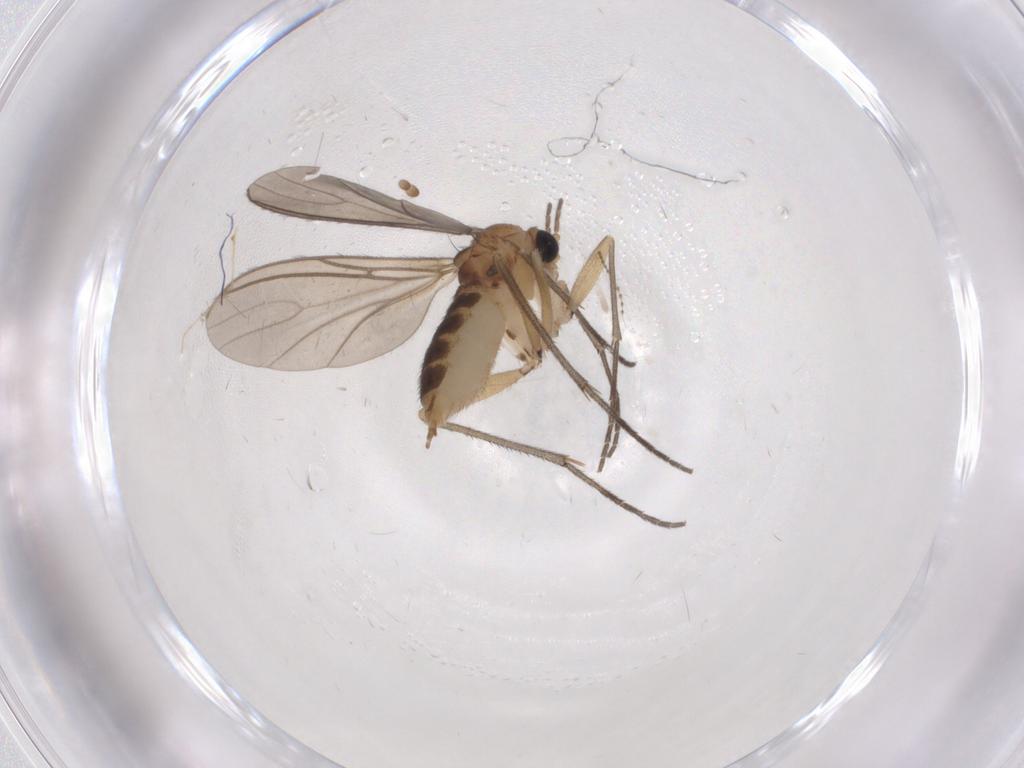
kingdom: Animalia
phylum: Arthropoda
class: Insecta
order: Diptera
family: Sciaridae
